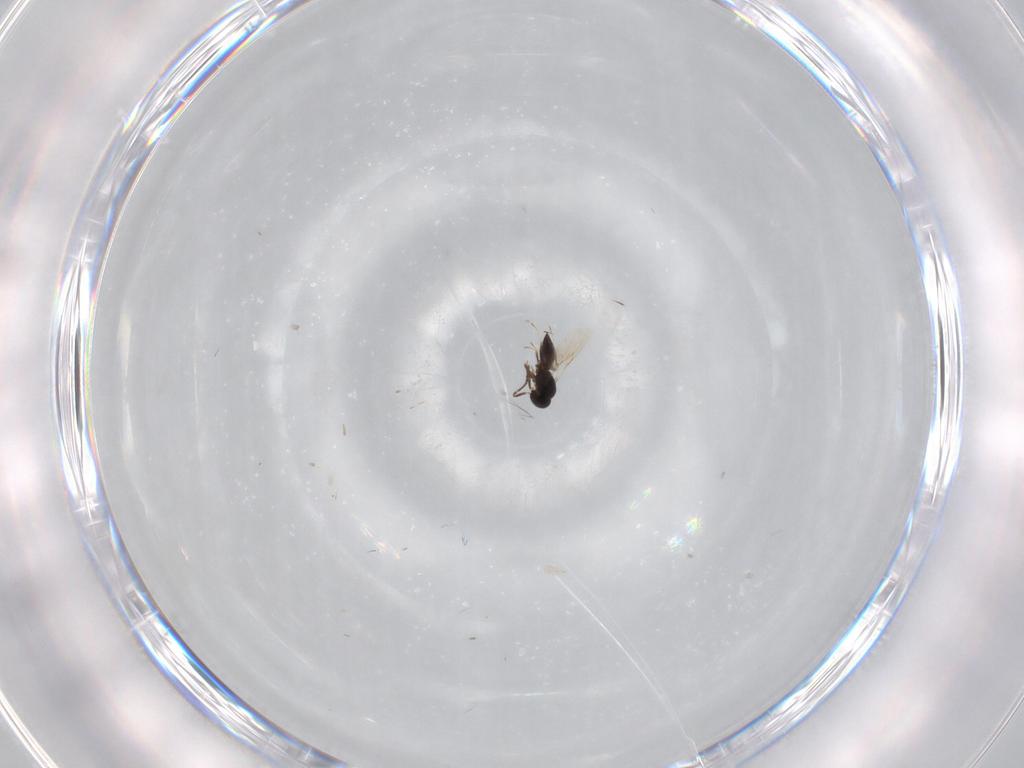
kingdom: Animalia
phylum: Arthropoda
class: Insecta
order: Hymenoptera
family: Scelionidae
